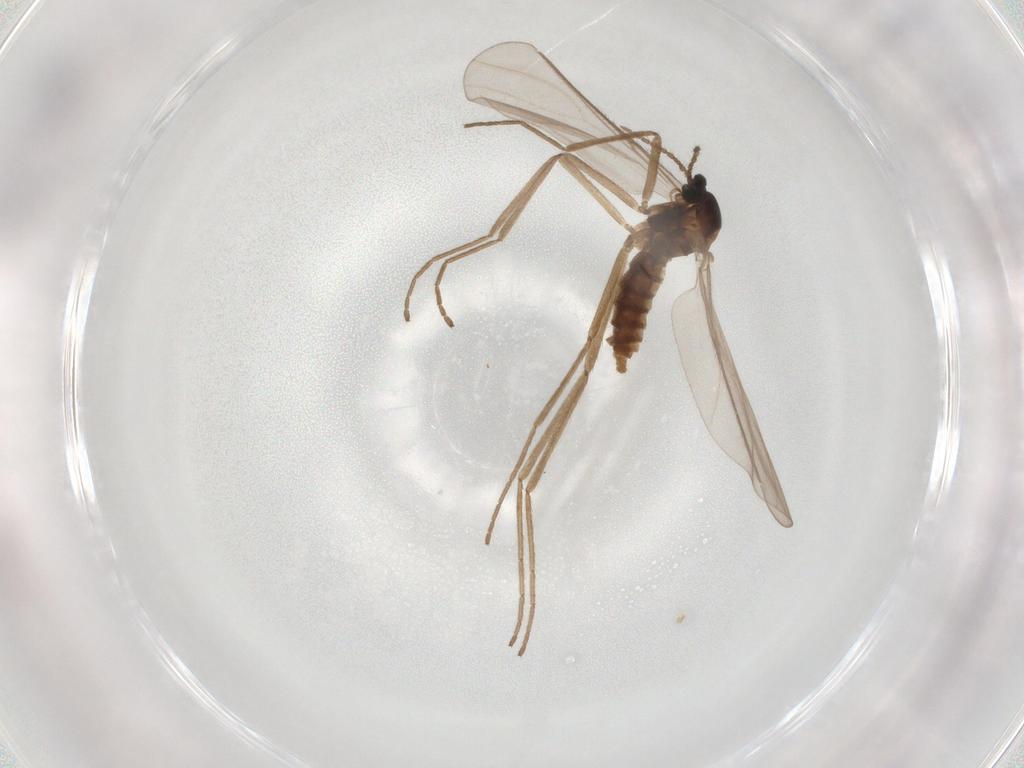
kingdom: Animalia
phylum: Arthropoda
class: Insecta
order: Diptera
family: Cecidomyiidae
